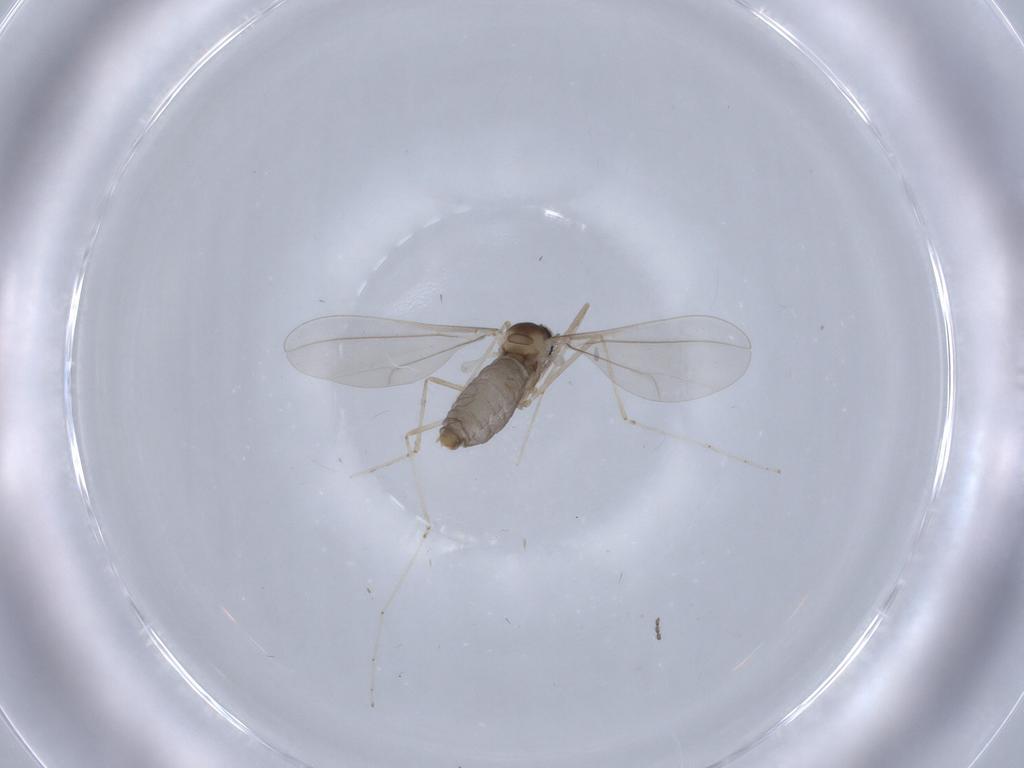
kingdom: Animalia
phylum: Arthropoda
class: Insecta
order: Diptera
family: Cecidomyiidae
